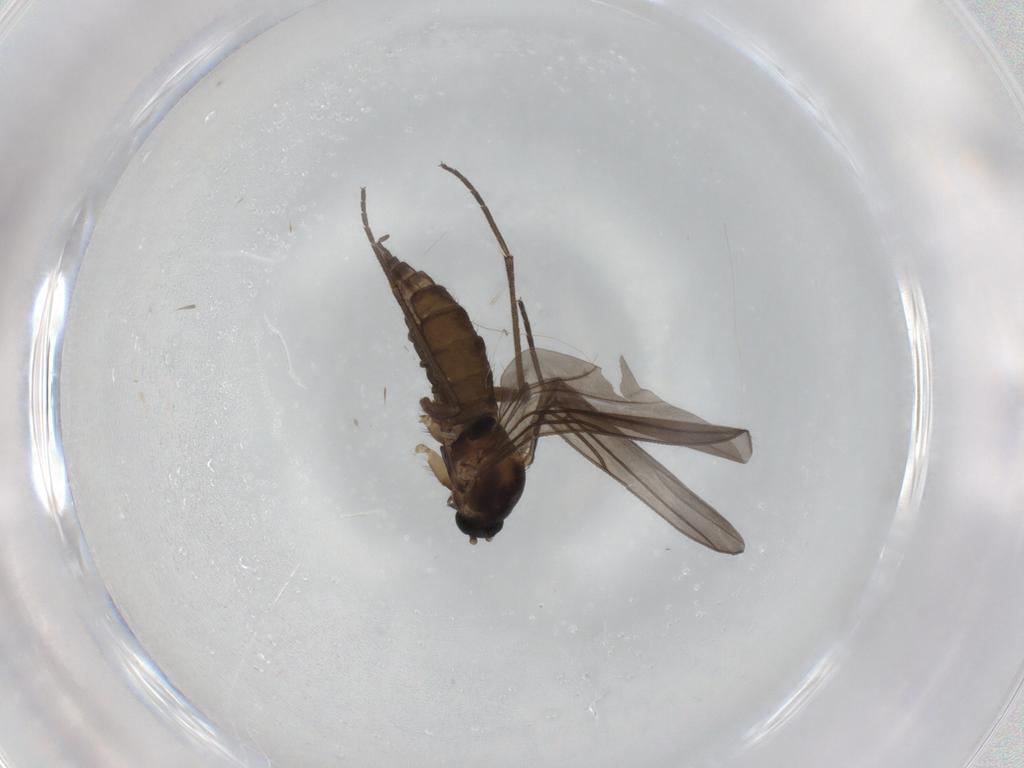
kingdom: Animalia
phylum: Arthropoda
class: Insecta
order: Diptera
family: Sciaridae
